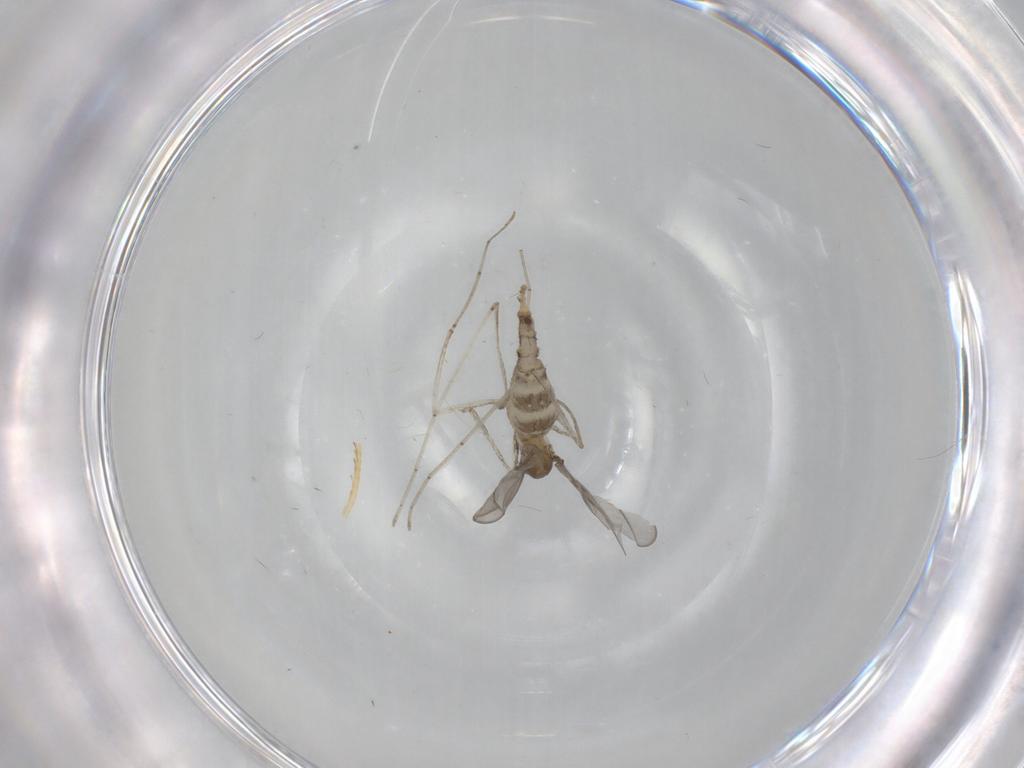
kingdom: Animalia
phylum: Arthropoda
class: Insecta
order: Diptera
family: Cecidomyiidae
